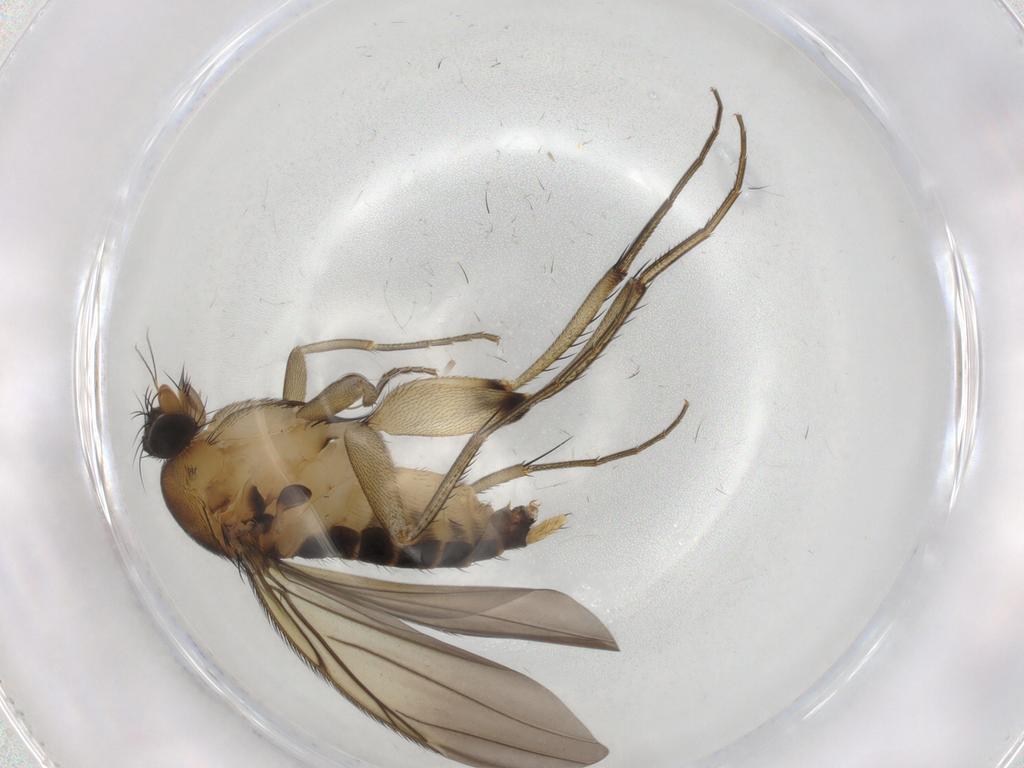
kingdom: Animalia
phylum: Arthropoda
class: Insecta
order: Diptera
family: Phoridae
